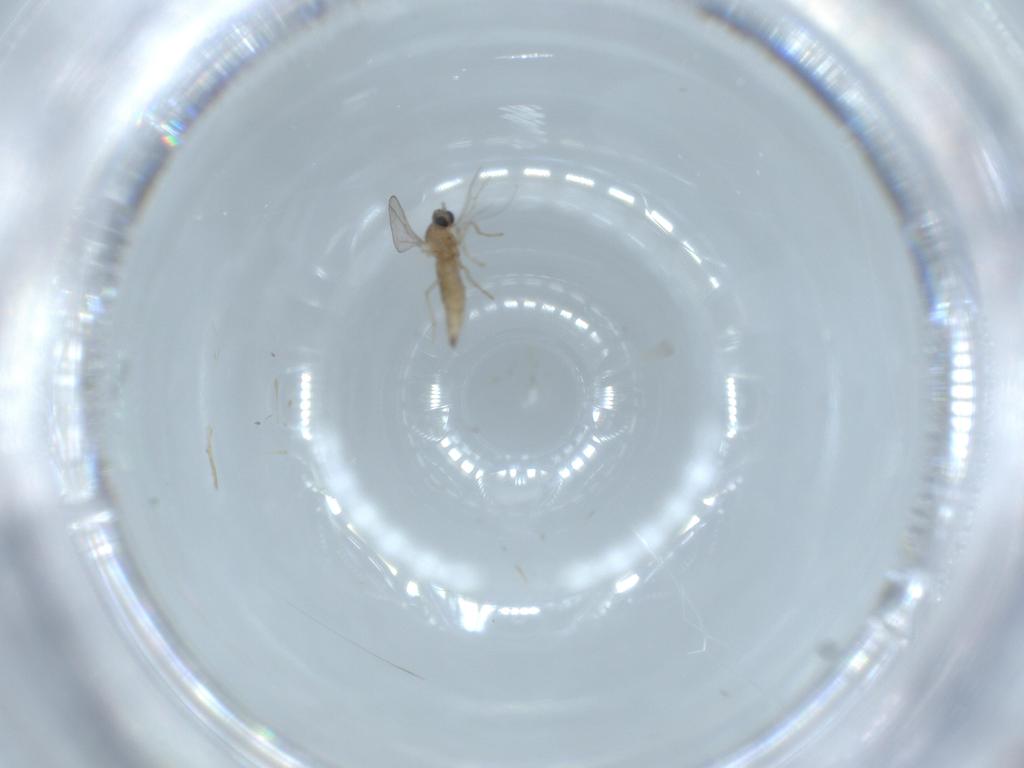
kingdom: Animalia
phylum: Arthropoda
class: Insecta
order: Diptera
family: Cecidomyiidae
